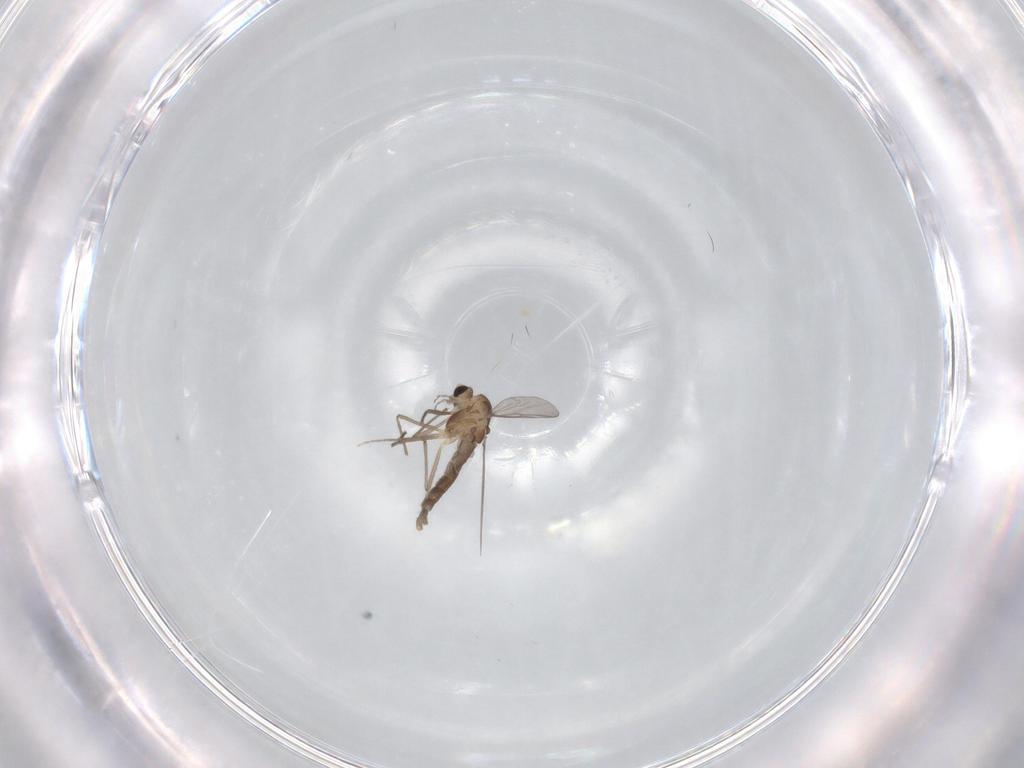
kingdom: Animalia
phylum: Arthropoda
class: Insecta
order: Diptera
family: Chironomidae
